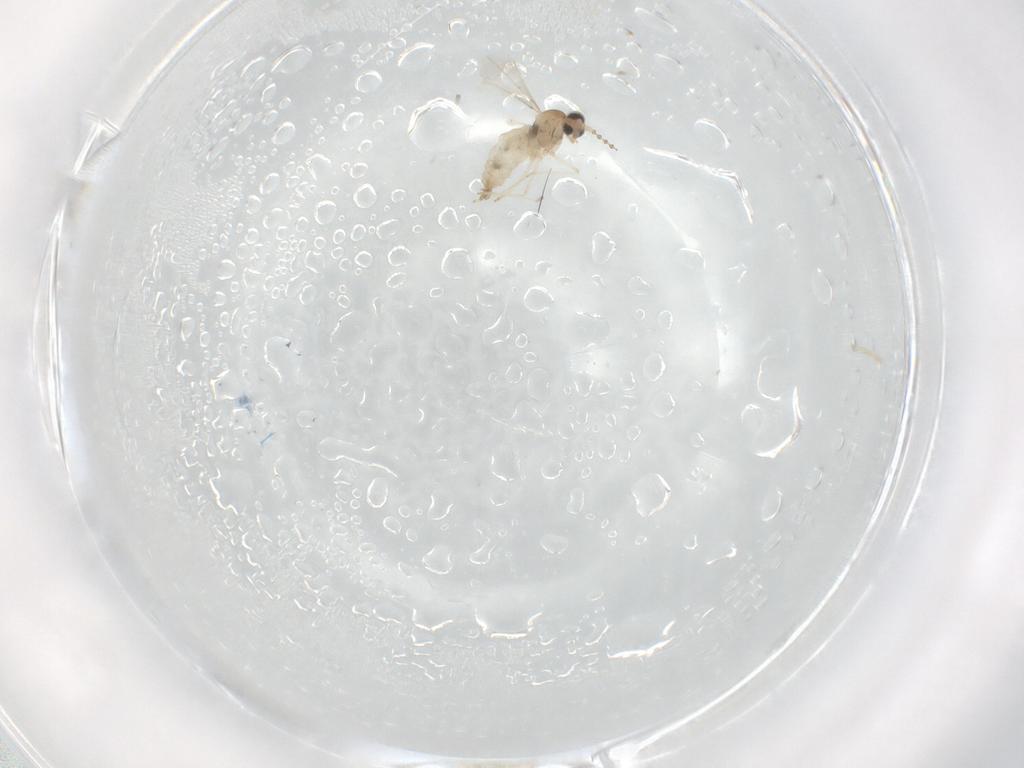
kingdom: Animalia
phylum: Arthropoda
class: Insecta
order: Diptera
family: Cecidomyiidae
